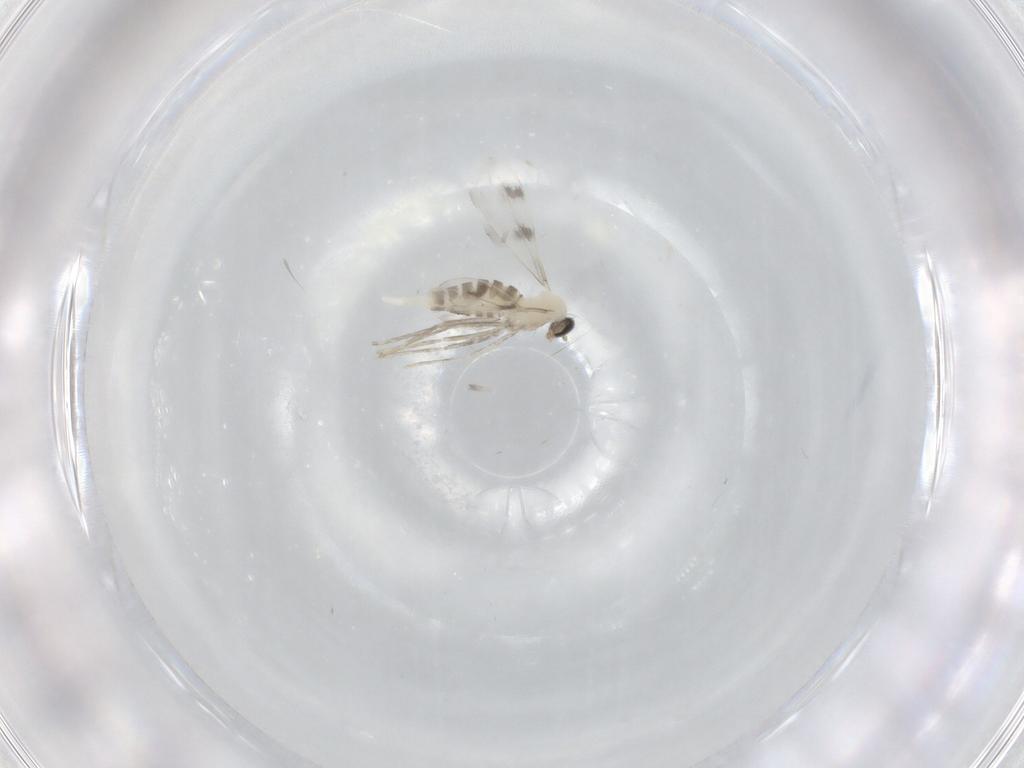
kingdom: Animalia
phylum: Arthropoda
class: Insecta
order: Diptera
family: Cecidomyiidae
